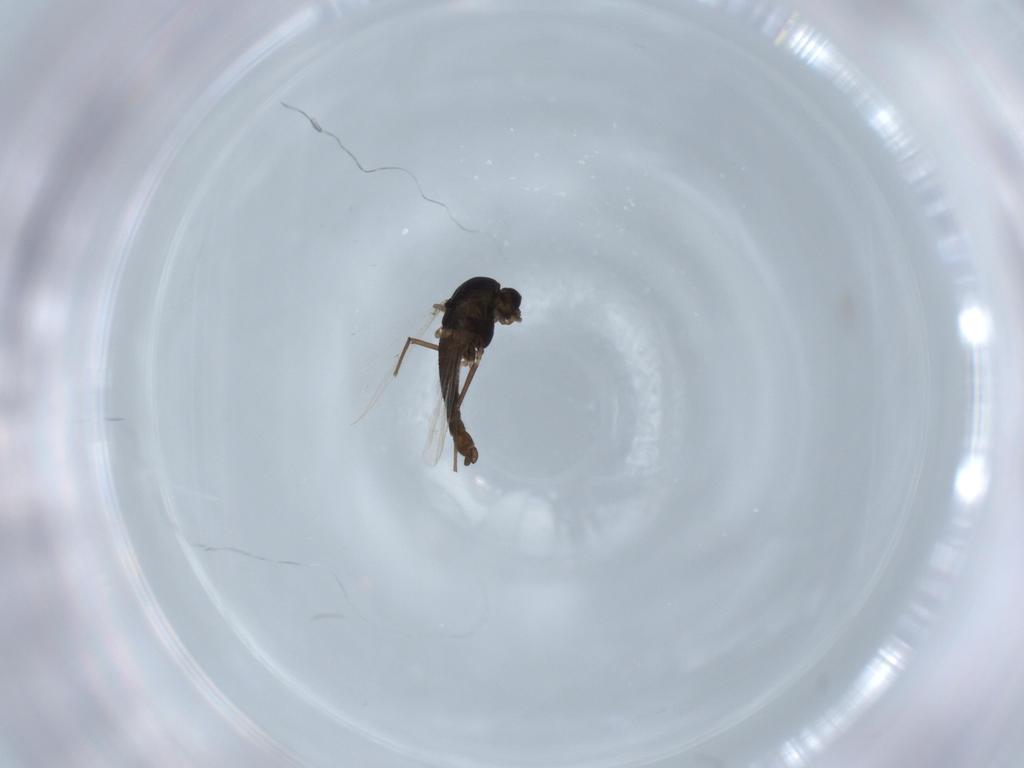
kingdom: Animalia
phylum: Arthropoda
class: Insecta
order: Diptera
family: Chironomidae
